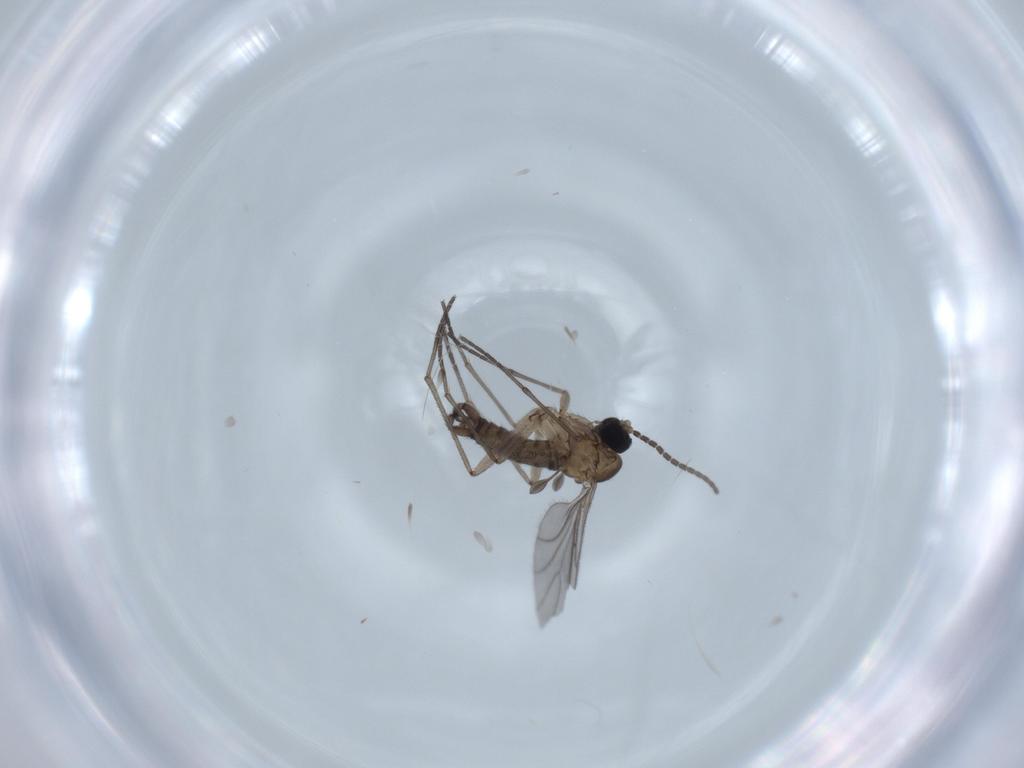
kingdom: Animalia
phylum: Arthropoda
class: Insecta
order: Diptera
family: Sciaridae
